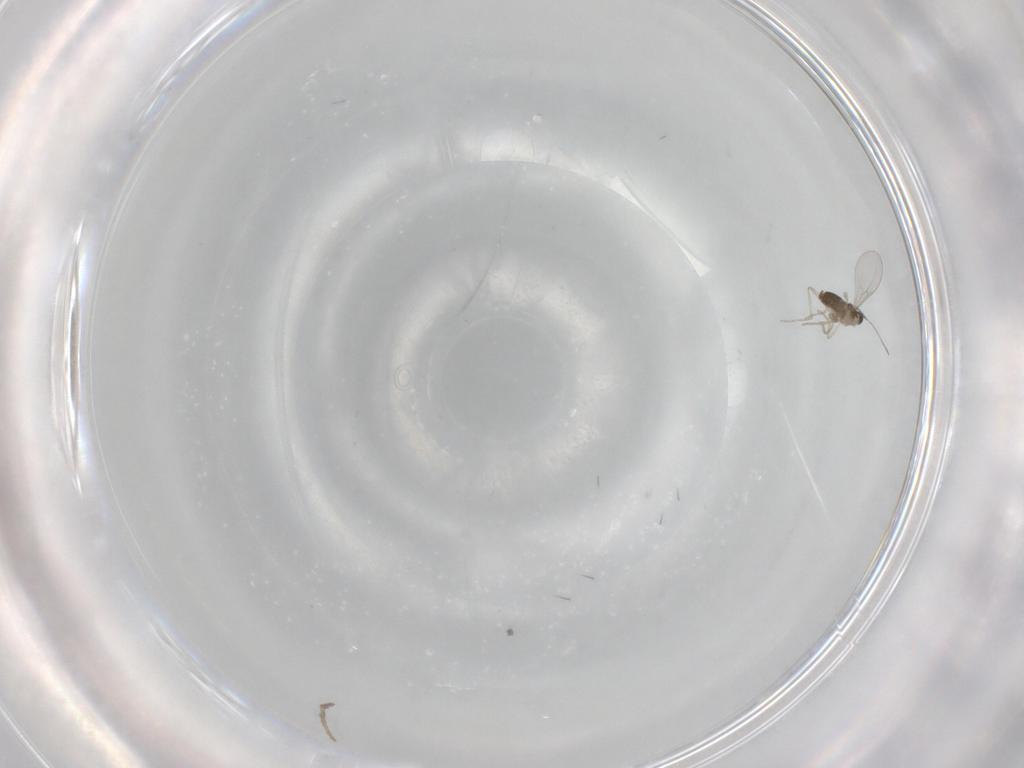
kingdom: Animalia
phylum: Arthropoda
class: Insecta
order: Diptera
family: Cecidomyiidae
